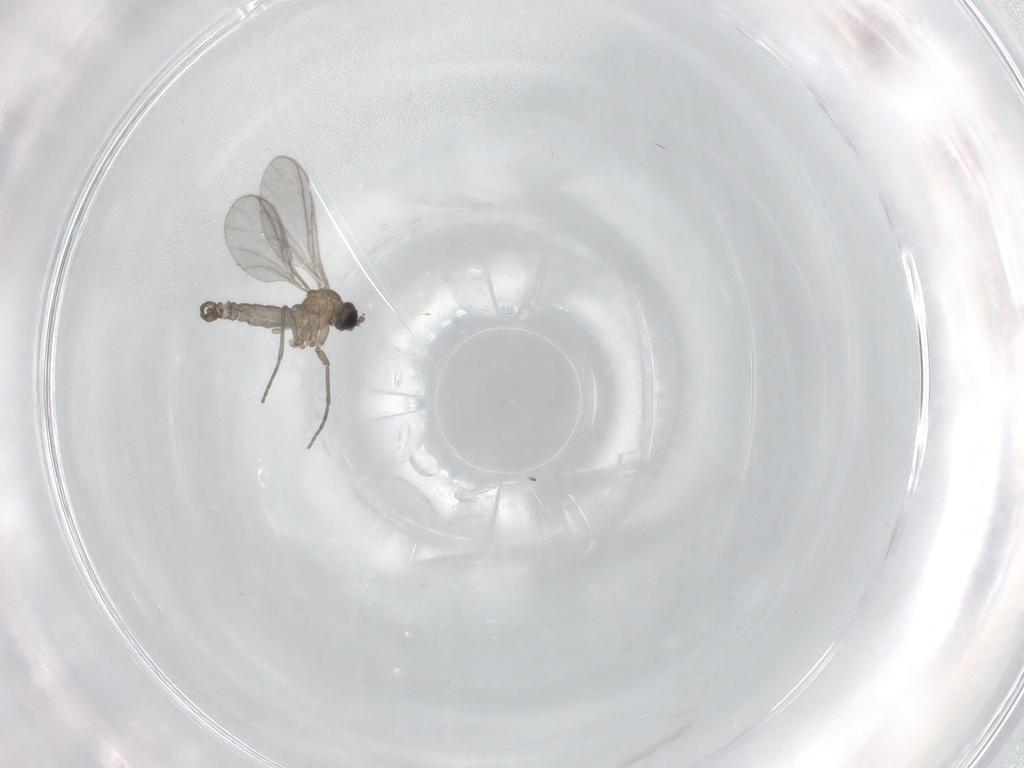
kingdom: Animalia
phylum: Arthropoda
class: Insecta
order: Diptera
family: Sciaridae
